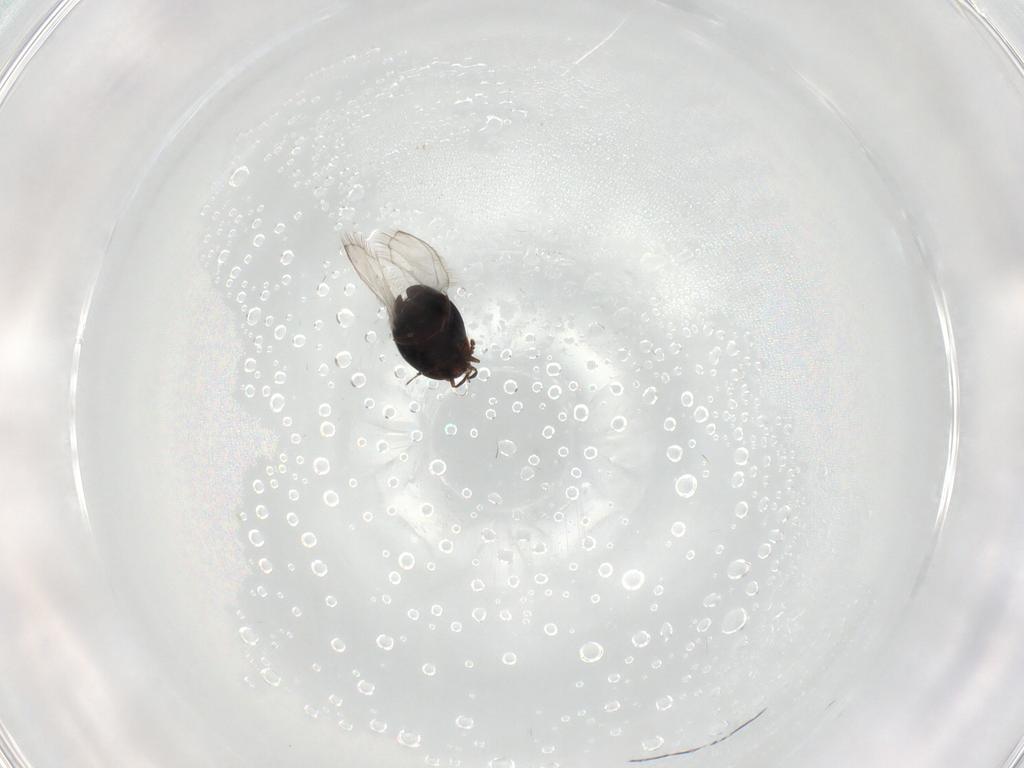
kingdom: Animalia
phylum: Arthropoda
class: Insecta
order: Coleoptera
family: Corylophidae
